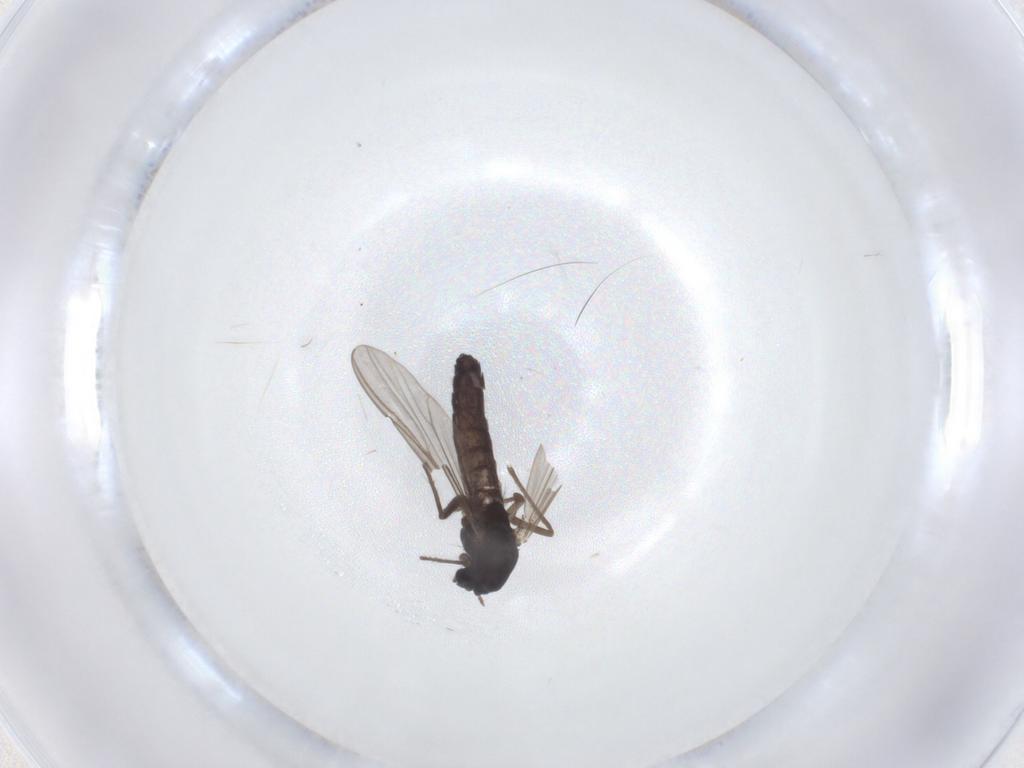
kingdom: Animalia
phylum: Arthropoda
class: Insecta
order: Diptera
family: Chironomidae
